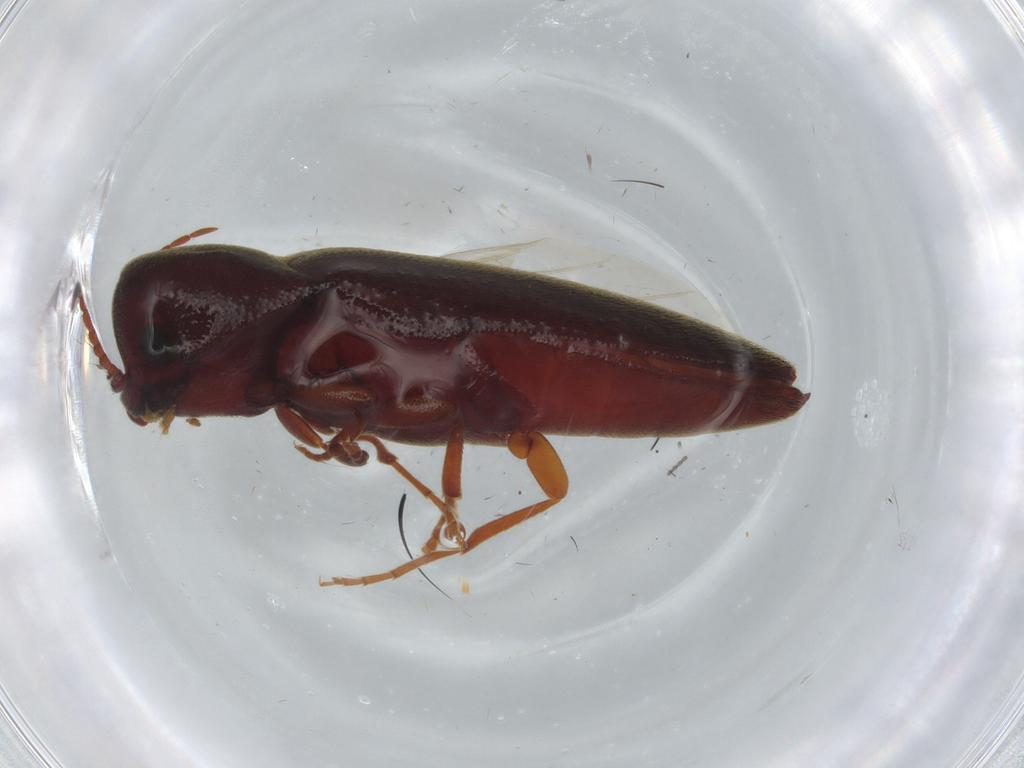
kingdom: Animalia
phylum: Arthropoda
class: Insecta
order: Coleoptera
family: Eucnemidae
